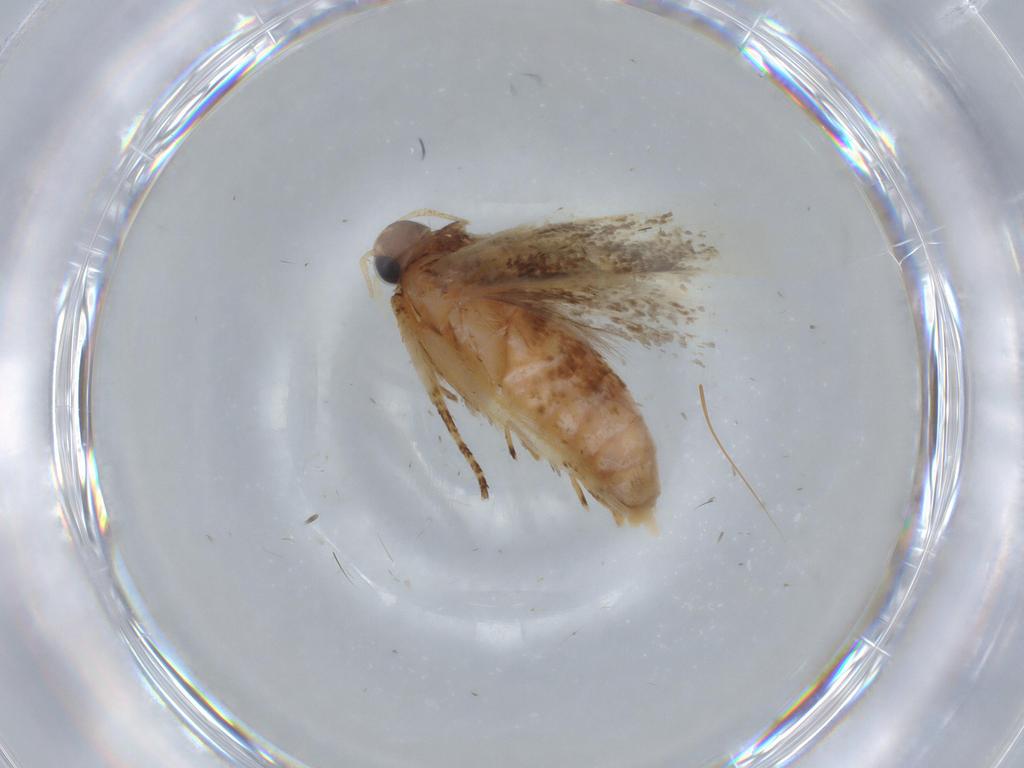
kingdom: Animalia
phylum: Arthropoda
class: Insecta
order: Lepidoptera
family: Gelechiidae
